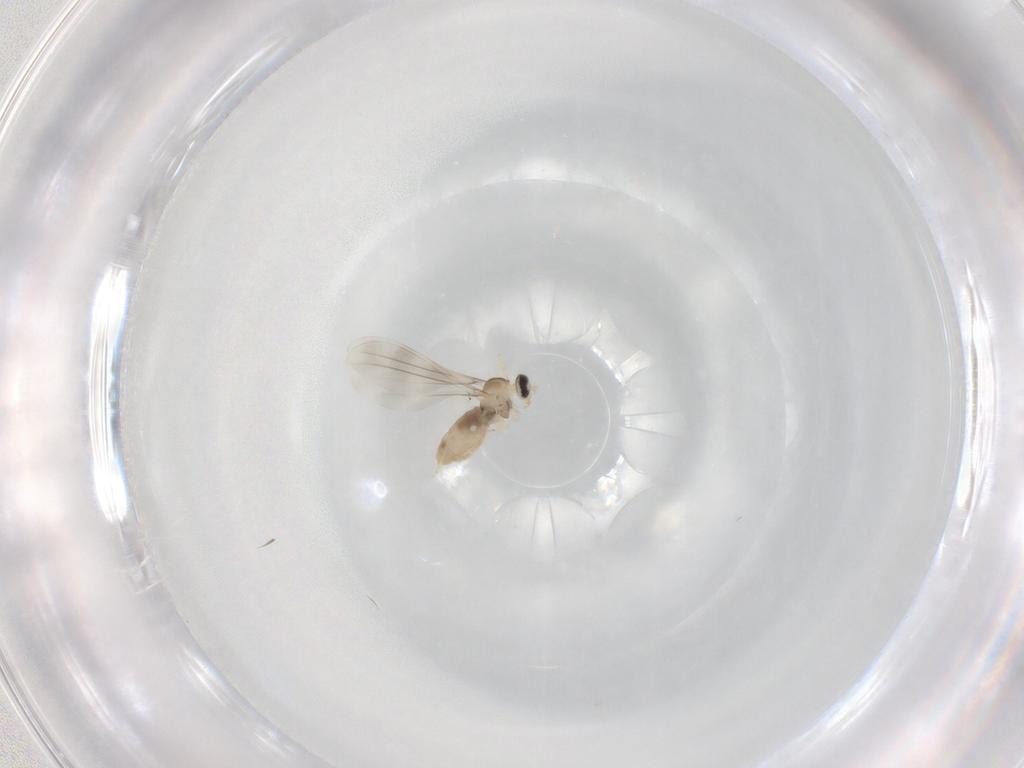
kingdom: Animalia
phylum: Arthropoda
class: Insecta
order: Diptera
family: Cecidomyiidae
